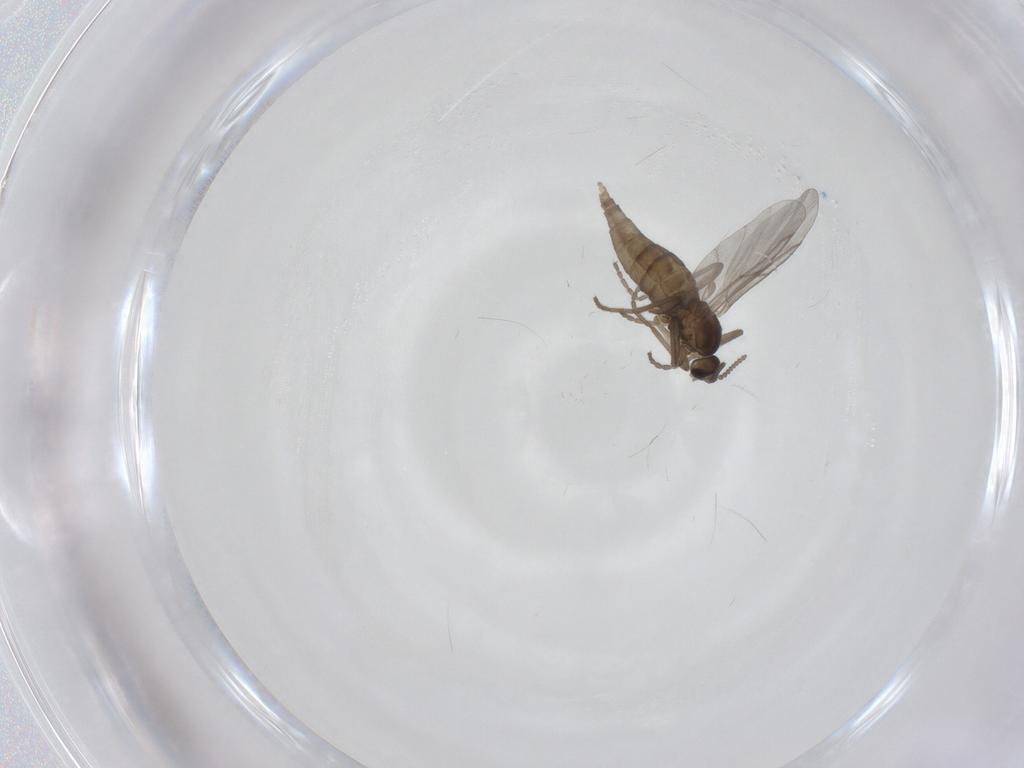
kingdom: Animalia
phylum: Arthropoda
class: Insecta
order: Diptera
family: Cecidomyiidae
